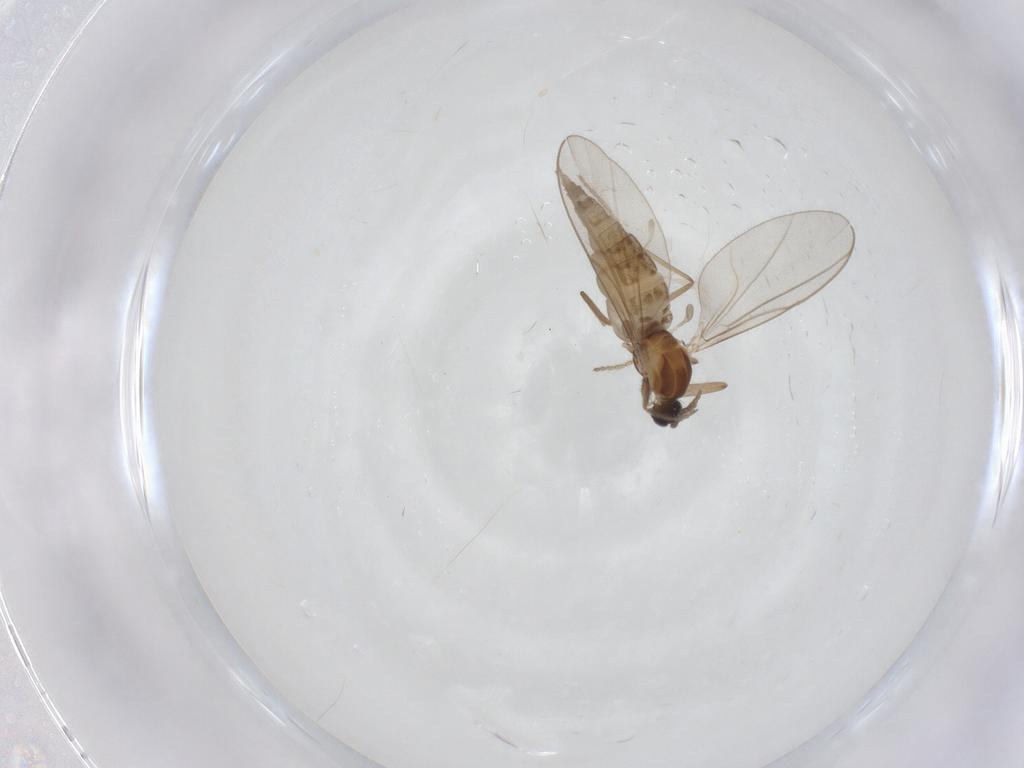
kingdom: Animalia
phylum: Arthropoda
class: Insecta
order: Diptera
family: Cecidomyiidae
